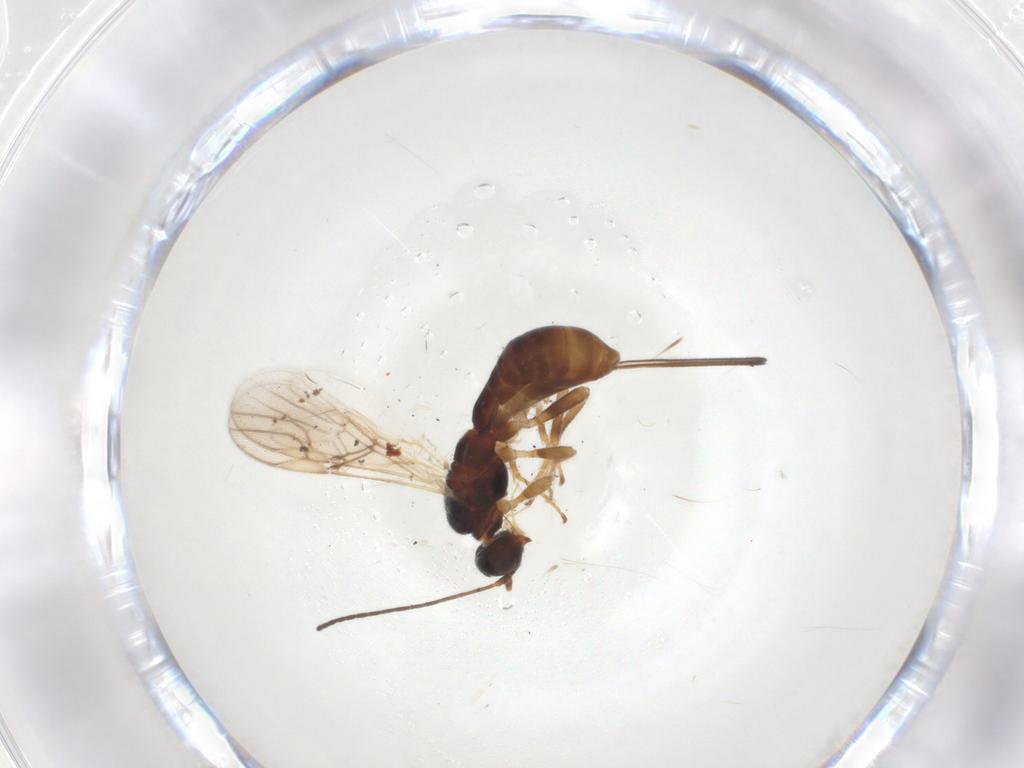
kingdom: Animalia
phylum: Arthropoda
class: Insecta
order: Hymenoptera
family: Braconidae
